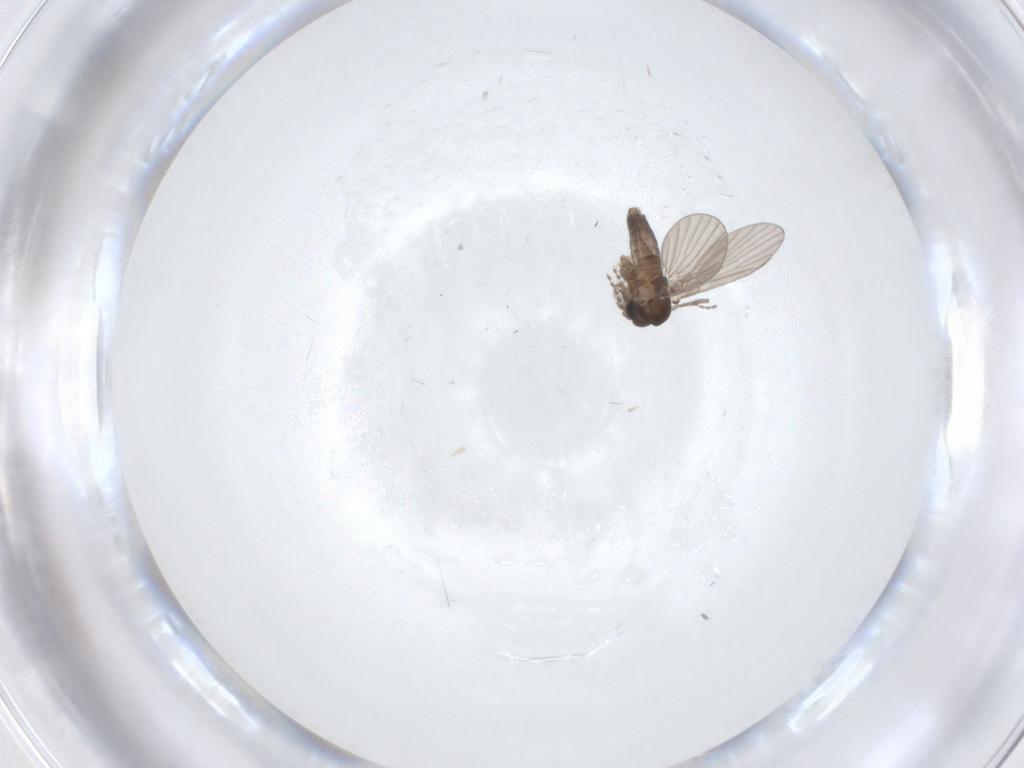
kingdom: Animalia
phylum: Arthropoda
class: Insecta
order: Diptera
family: Cecidomyiidae
